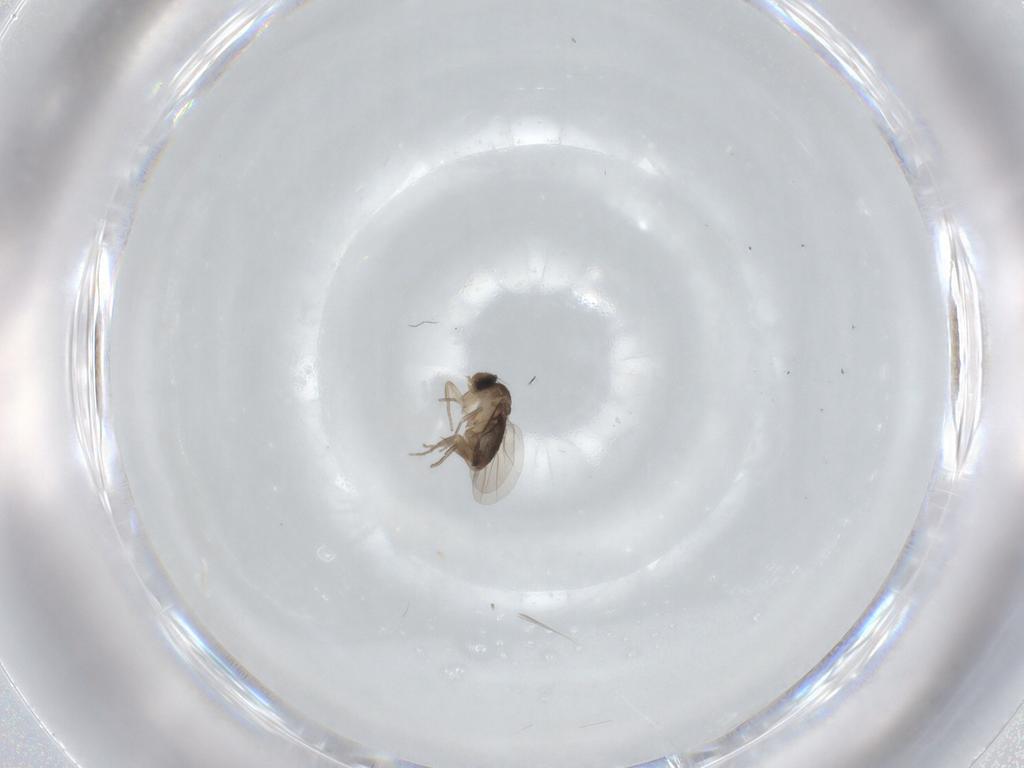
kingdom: Animalia
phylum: Arthropoda
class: Insecta
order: Diptera
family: Phoridae
